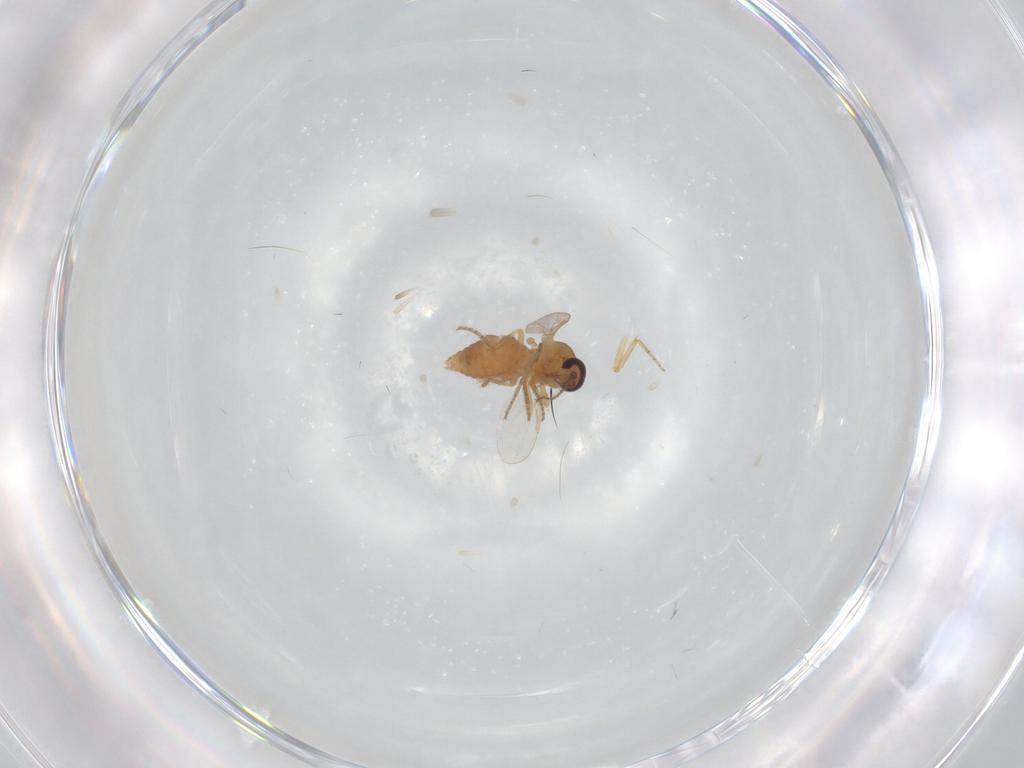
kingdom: Animalia
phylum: Arthropoda
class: Insecta
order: Diptera
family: Ceratopogonidae
